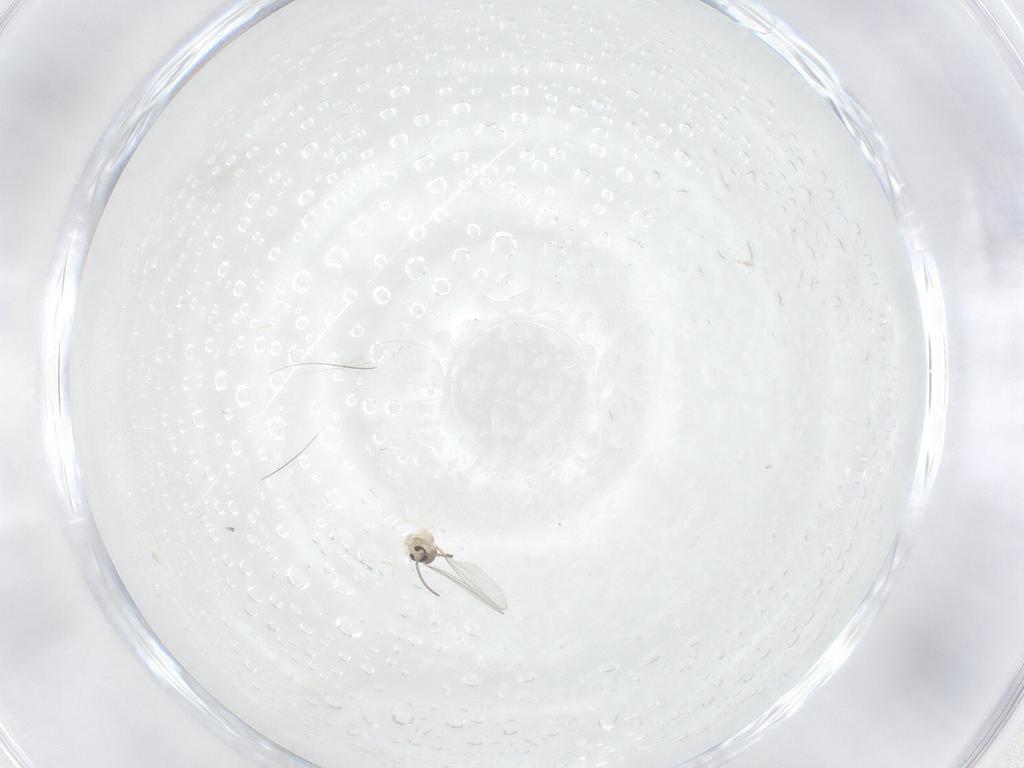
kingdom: Animalia
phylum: Arthropoda
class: Insecta
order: Diptera
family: Cecidomyiidae
